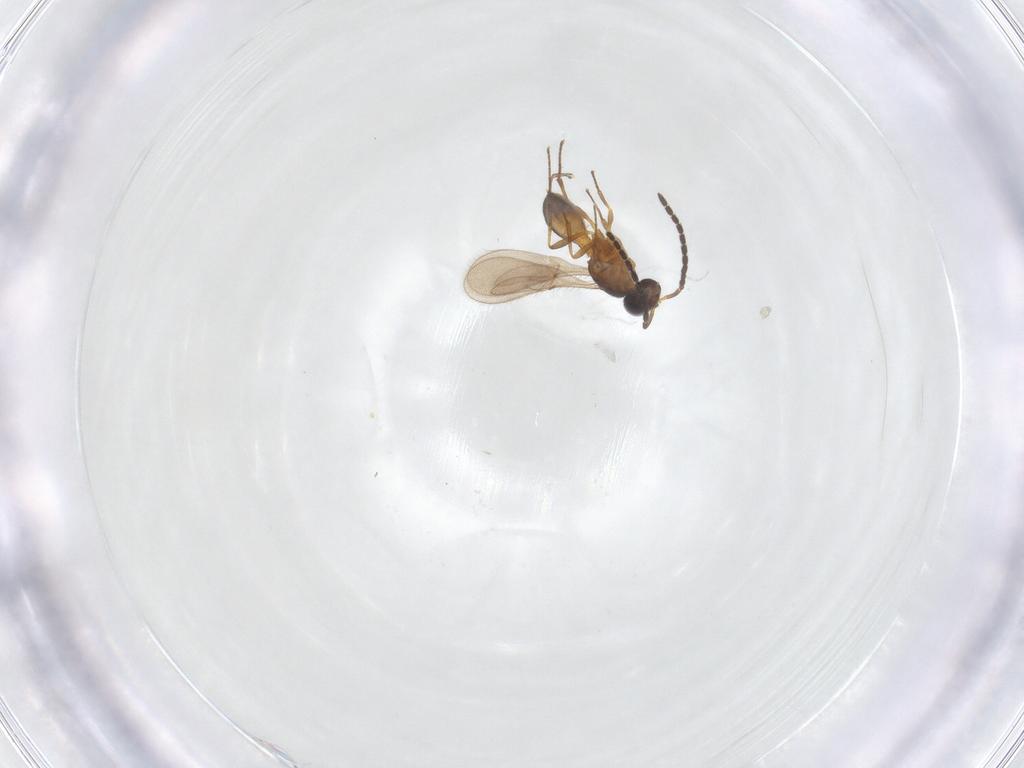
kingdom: Animalia
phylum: Arthropoda
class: Insecta
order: Hymenoptera
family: Scelionidae
